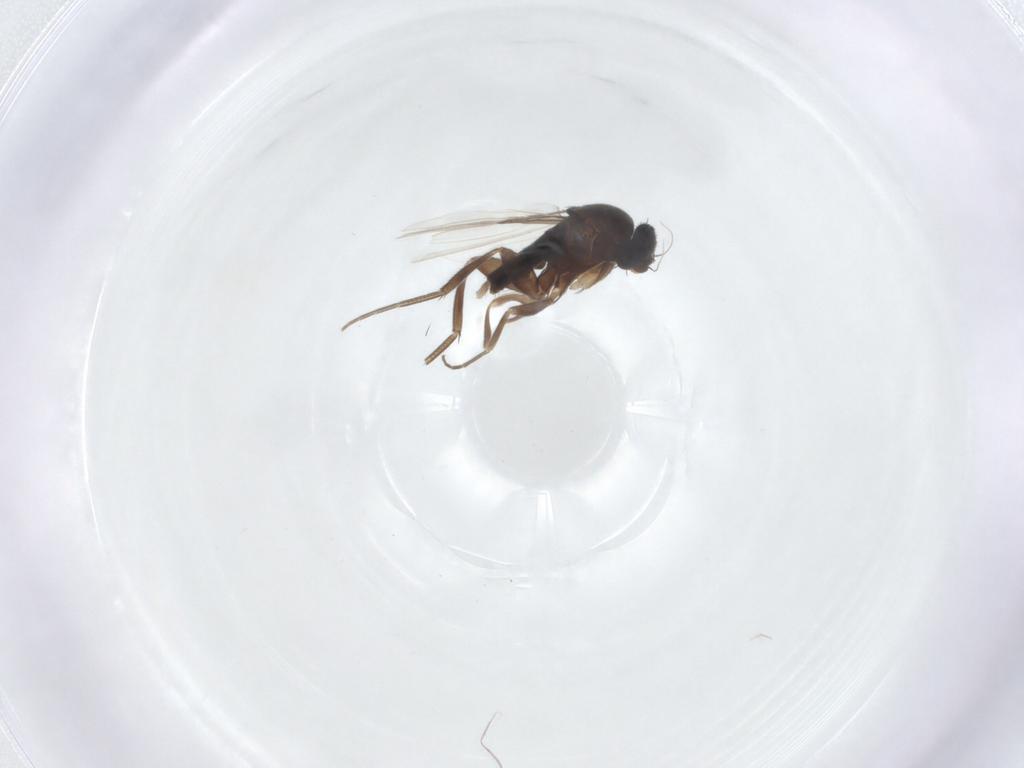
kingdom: Animalia
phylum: Arthropoda
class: Insecta
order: Diptera
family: Phoridae
